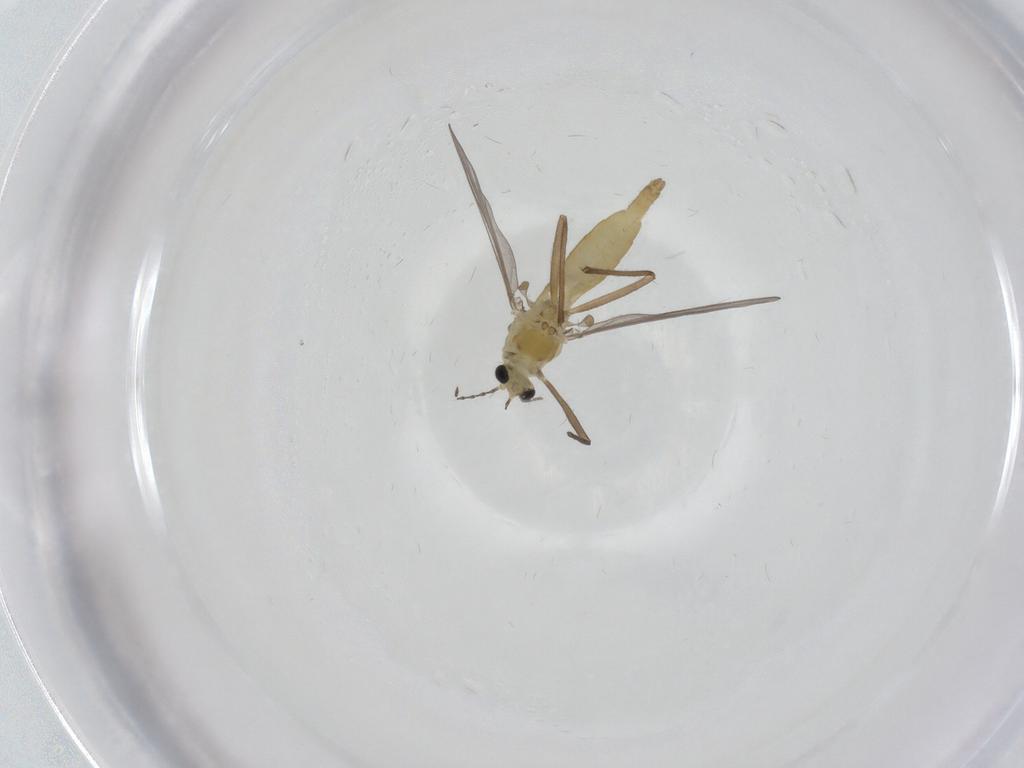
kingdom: Animalia
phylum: Arthropoda
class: Insecta
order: Diptera
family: Chironomidae
